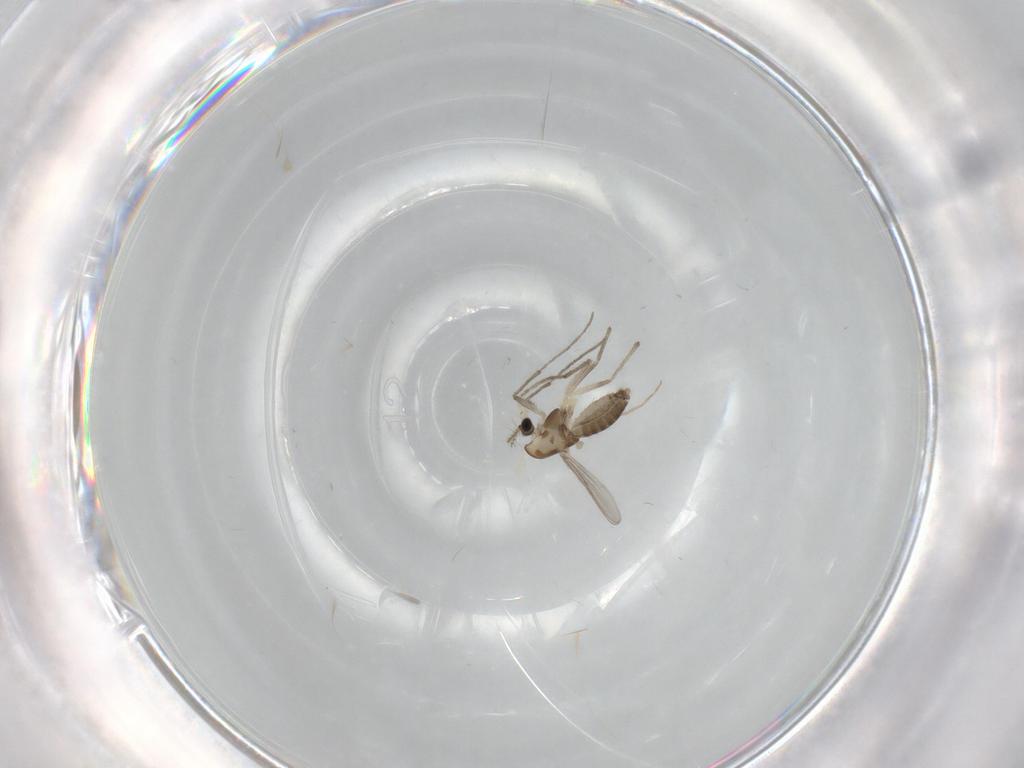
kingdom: Animalia
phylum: Arthropoda
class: Insecta
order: Diptera
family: Chironomidae
